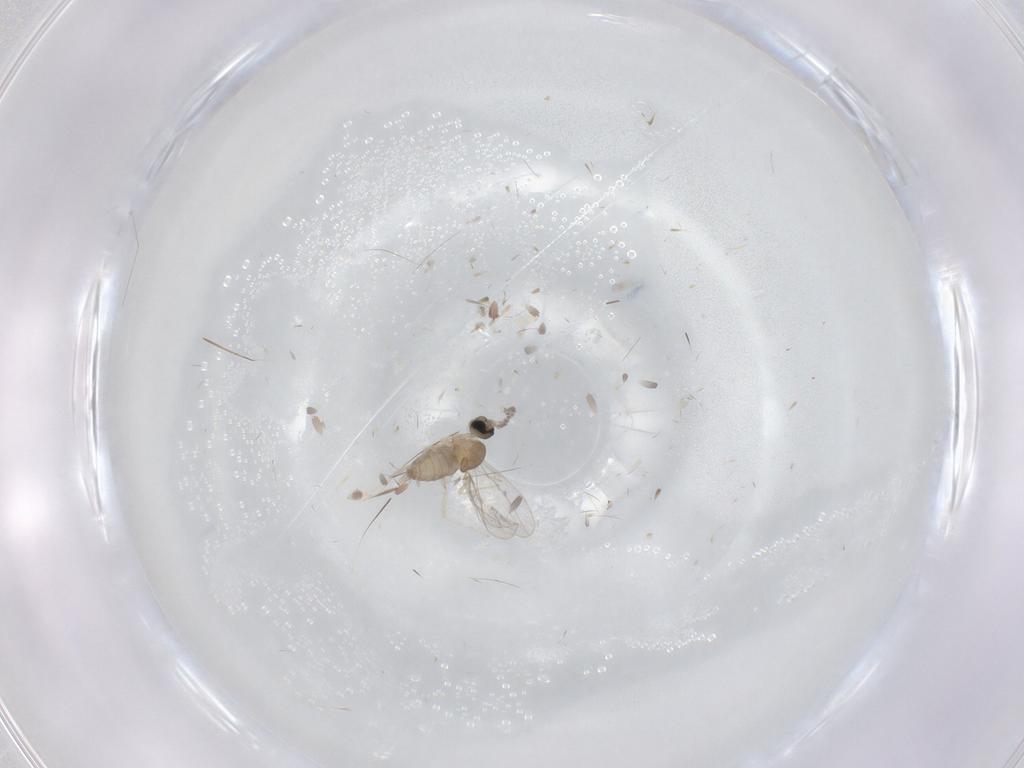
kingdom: Animalia
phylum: Arthropoda
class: Insecta
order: Diptera
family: Cecidomyiidae
